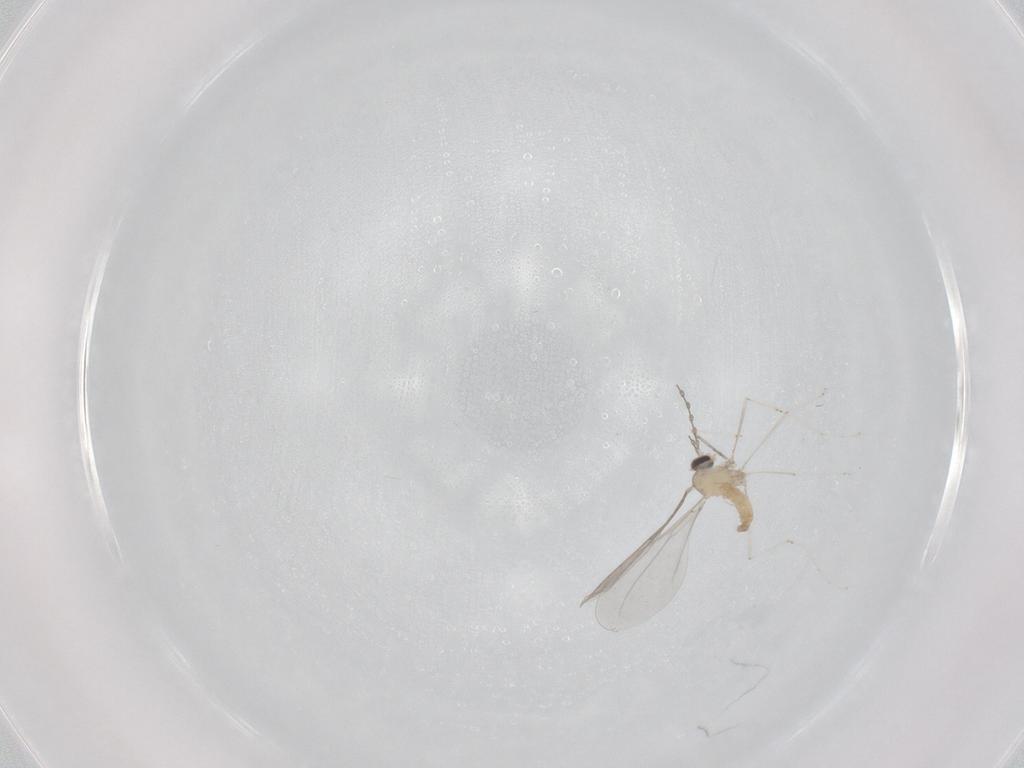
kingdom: Animalia
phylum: Arthropoda
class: Insecta
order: Diptera
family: Cecidomyiidae
